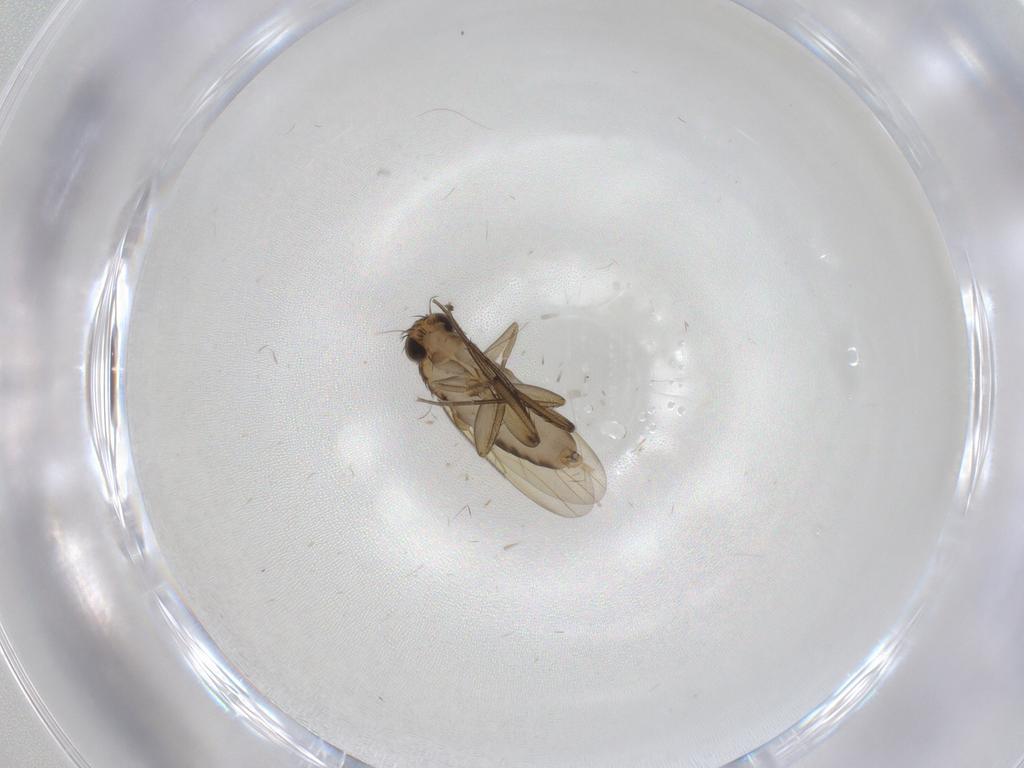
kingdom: Animalia
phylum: Arthropoda
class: Insecta
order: Diptera
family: Phoridae
